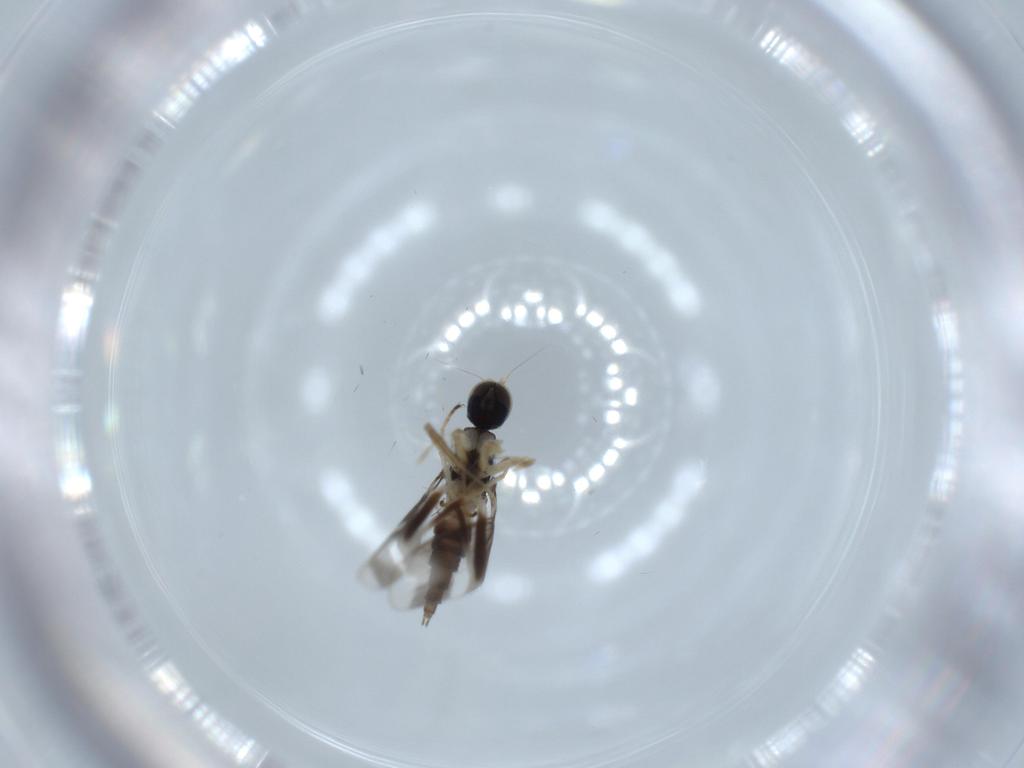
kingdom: Animalia
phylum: Arthropoda
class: Insecta
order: Diptera
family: Hybotidae
